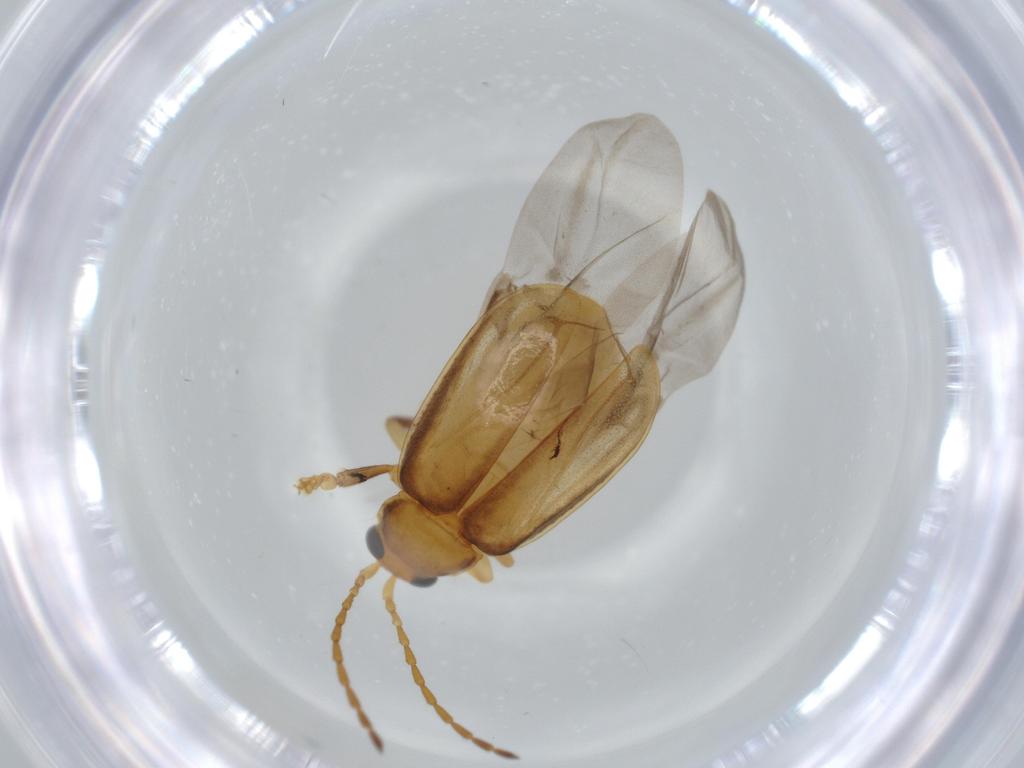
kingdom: Animalia
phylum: Arthropoda
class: Insecta
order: Coleoptera
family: Chrysomelidae
